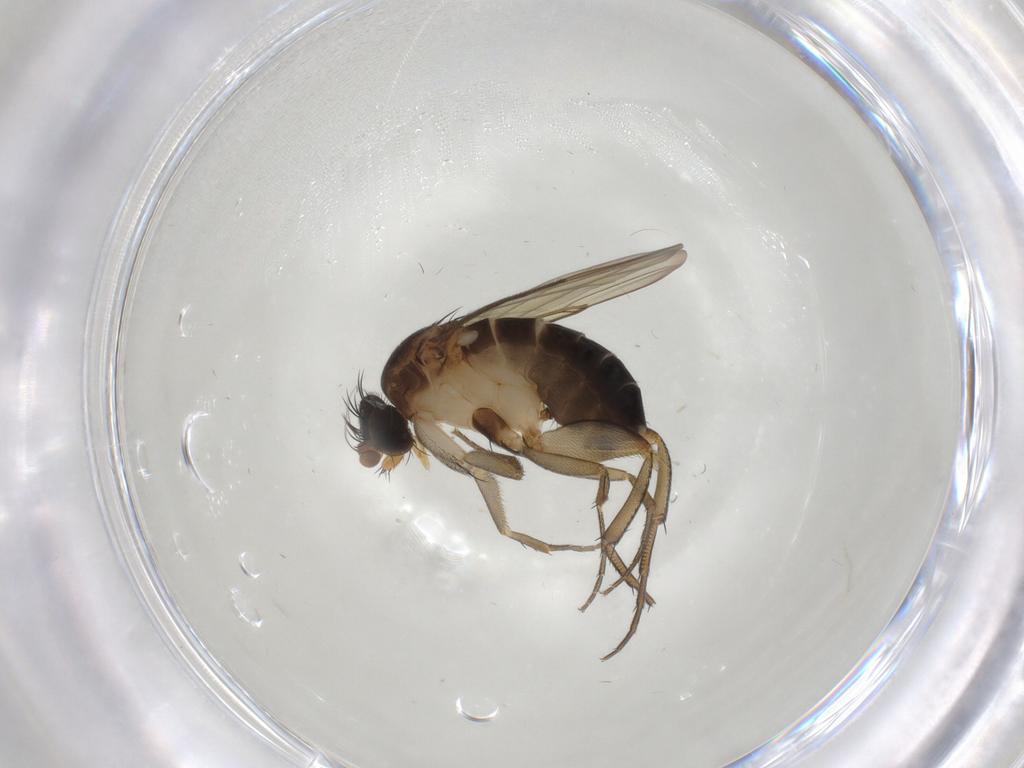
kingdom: Animalia
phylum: Arthropoda
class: Insecta
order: Diptera
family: Phoridae
